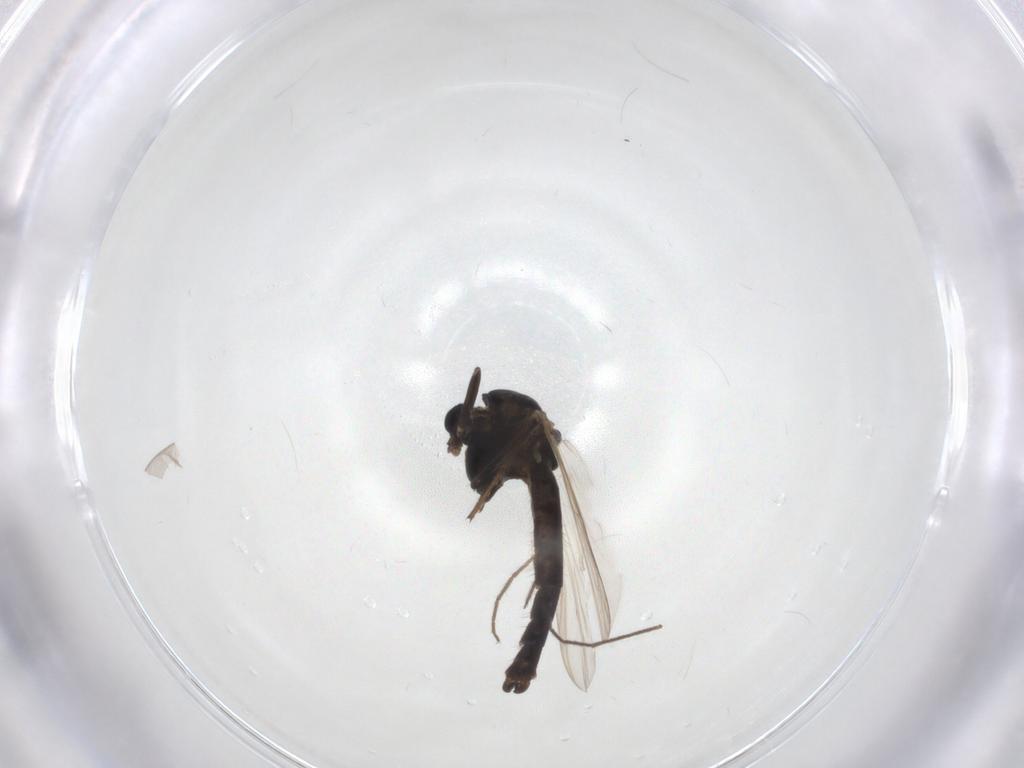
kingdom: Animalia
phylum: Arthropoda
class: Insecta
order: Diptera
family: Chironomidae
